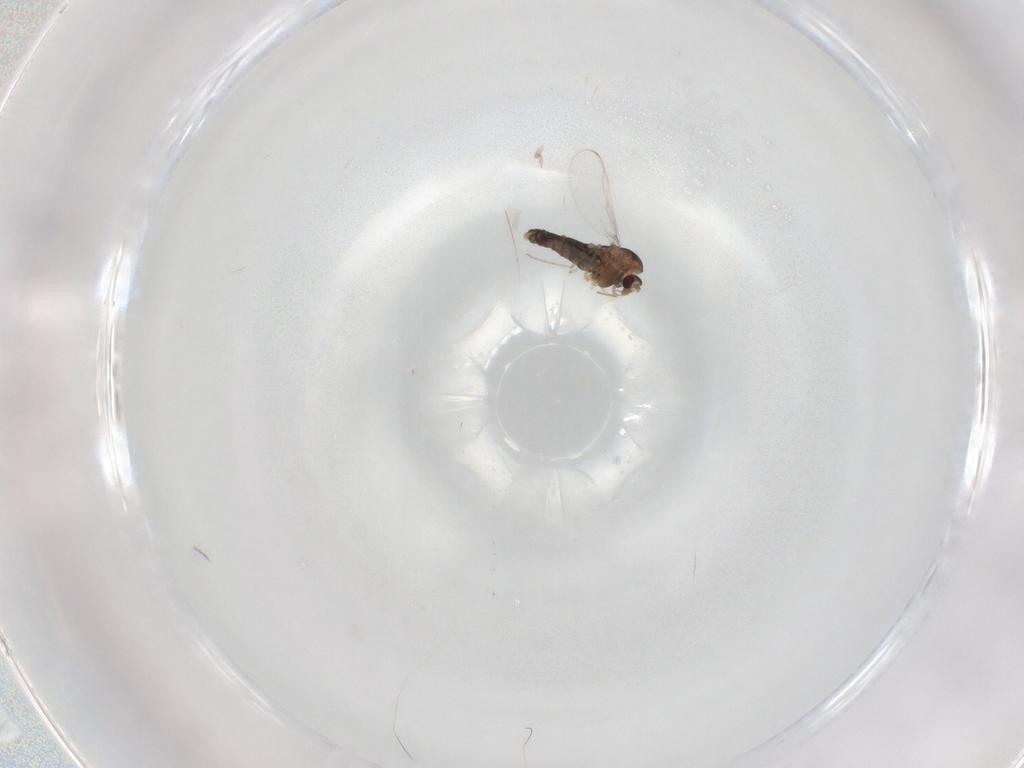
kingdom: Animalia
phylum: Arthropoda
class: Insecta
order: Diptera
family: Chironomidae
